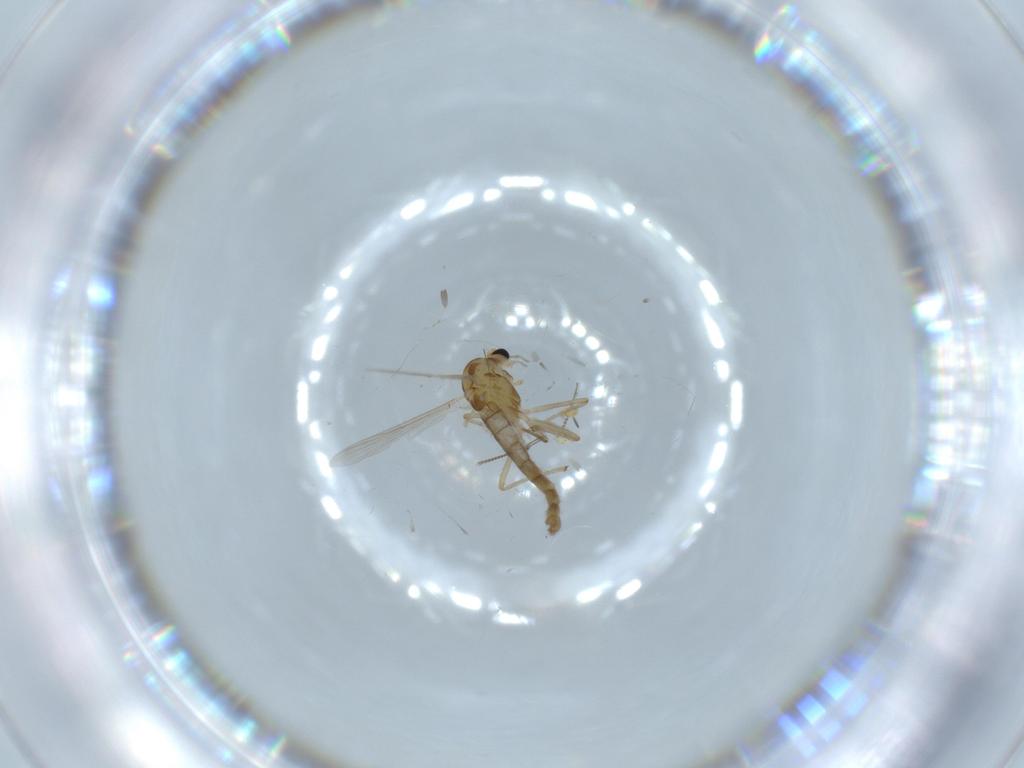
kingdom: Animalia
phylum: Arthropoda
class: Insecta
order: Diptera
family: Chironomidae
